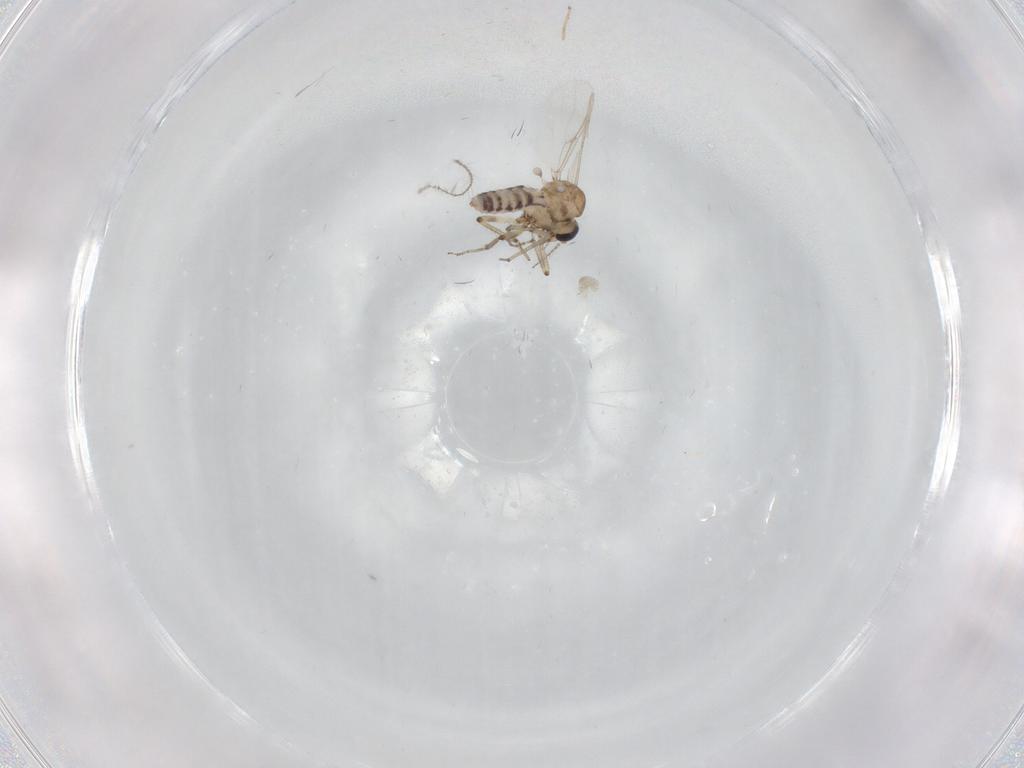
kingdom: Animalia
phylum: Arthropoda
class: Insecta
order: Diptera
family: Ceratopogonidae
